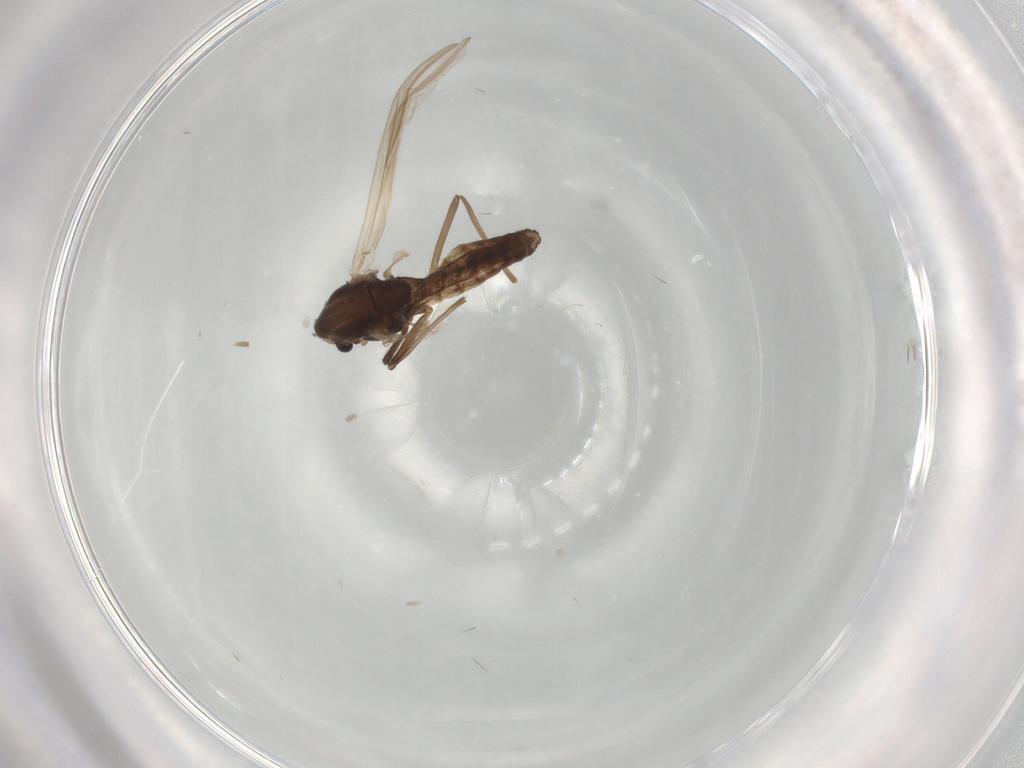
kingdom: Animalia
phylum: Arthropoda
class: Insecta
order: Diptera
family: Chironomidae
